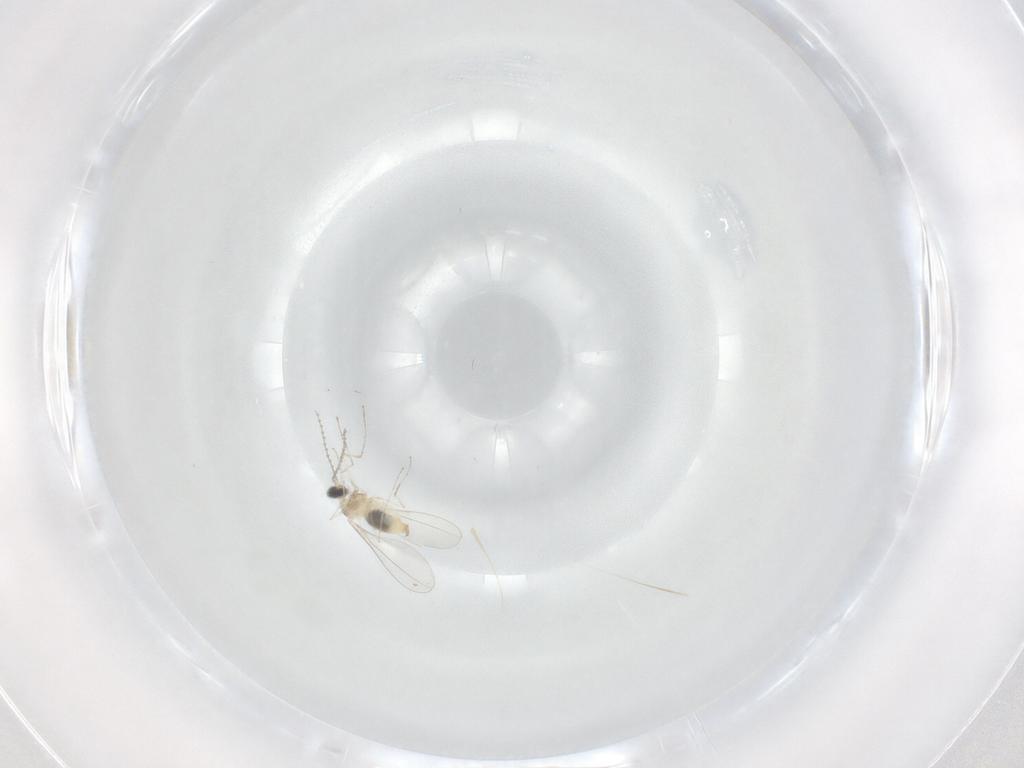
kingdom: Animalia
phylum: Arthropoda
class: Insecta
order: Diptera
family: Cecidomyiidae
